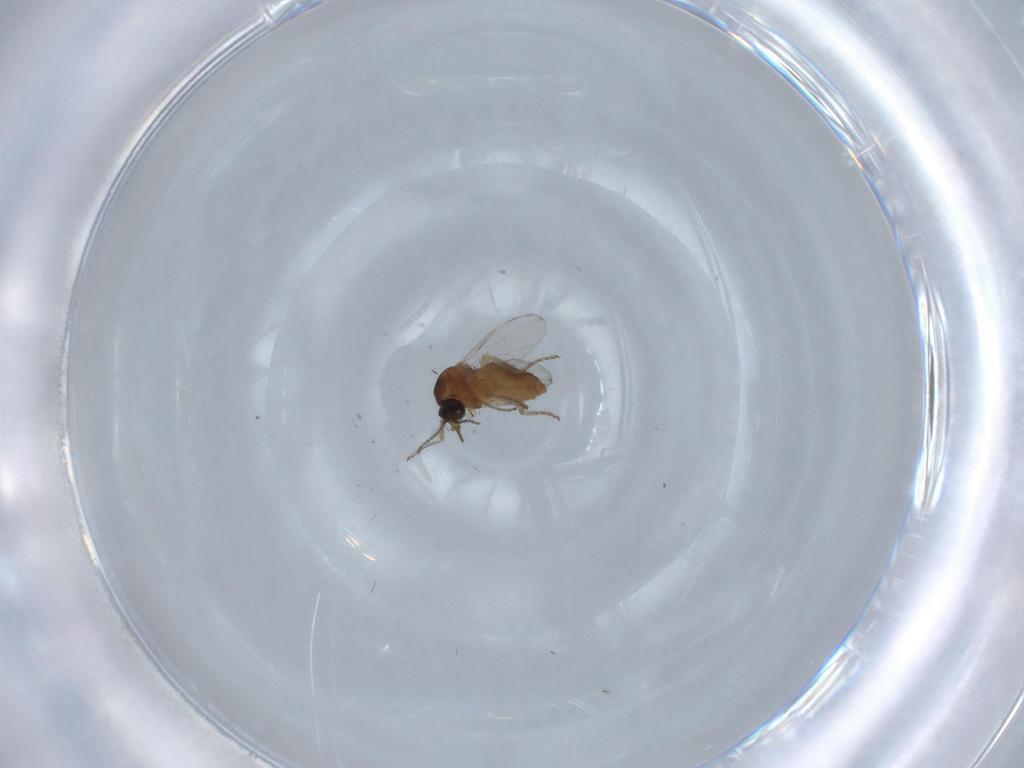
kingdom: Animalia
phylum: Arthropoda
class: Insecta
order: Diptera
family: Ceratopogonidae
